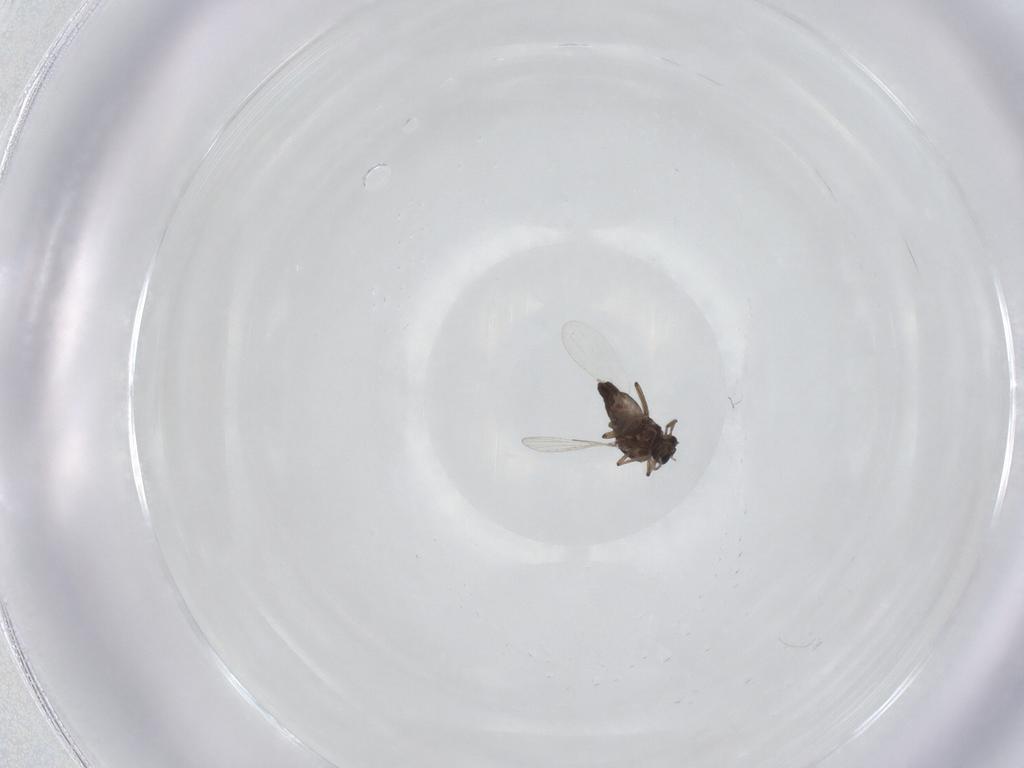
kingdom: Animalia
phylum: Arthropoda
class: Insecta
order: Diptera
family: Ceratopogonidae
